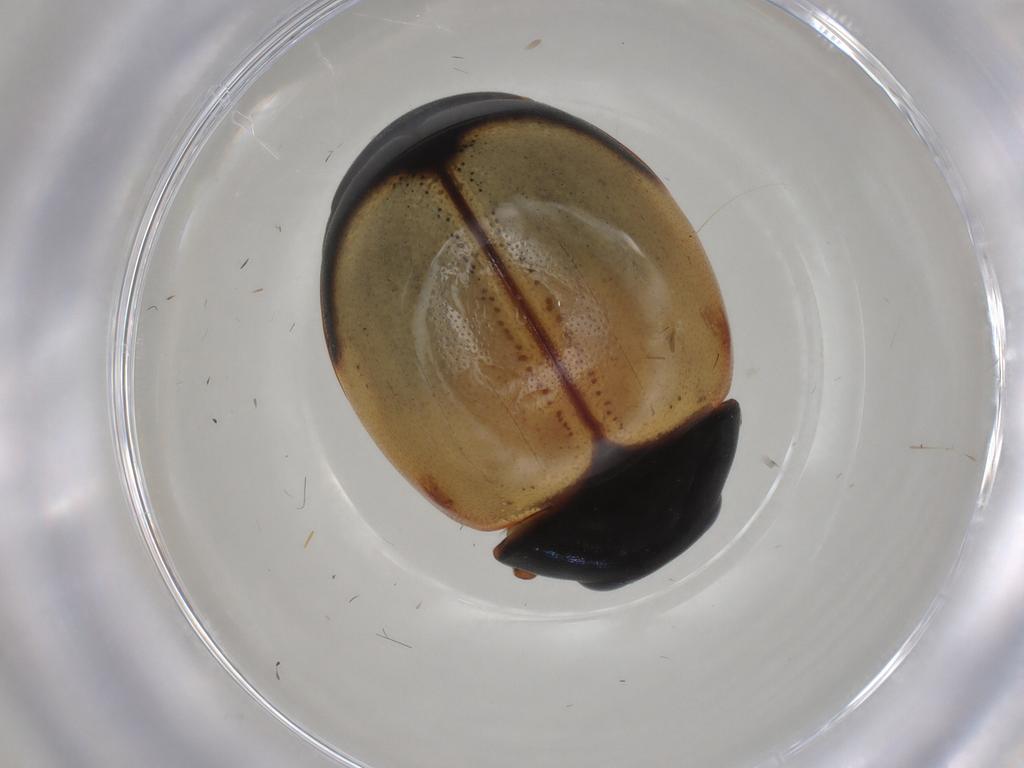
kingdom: Animalia
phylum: Arthropoda
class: Insecta
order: Coleoptera
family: Coccinellidae
